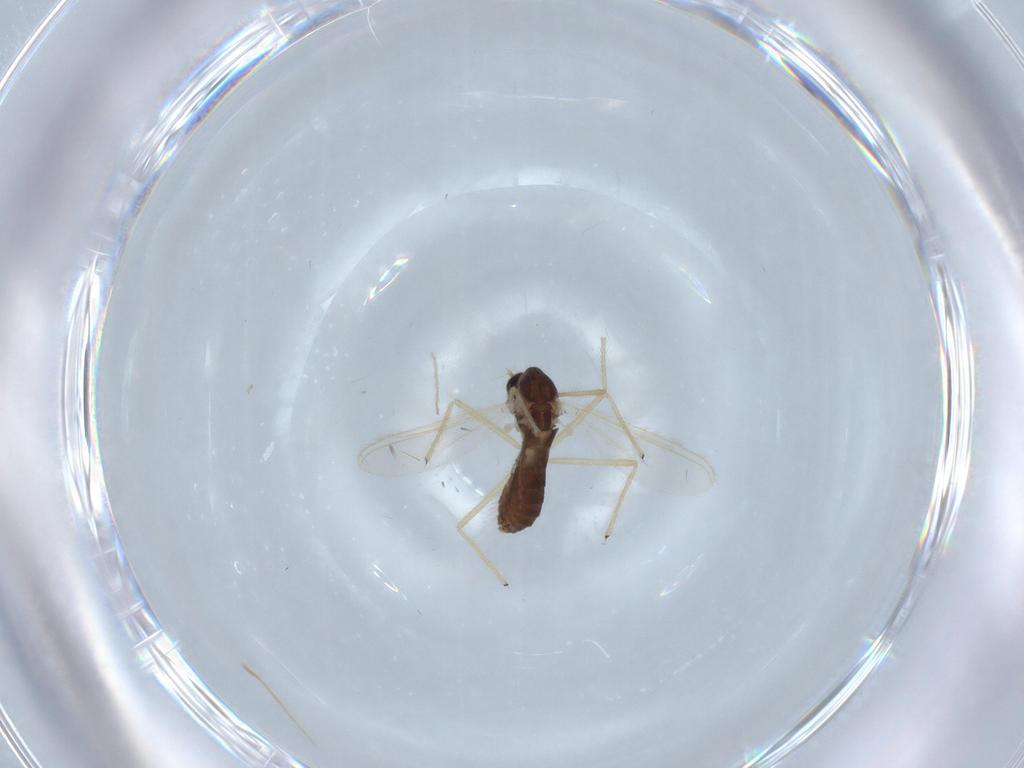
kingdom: Animalia
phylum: Arthropoda
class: Insecta
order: Diptera
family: Chironomidae
